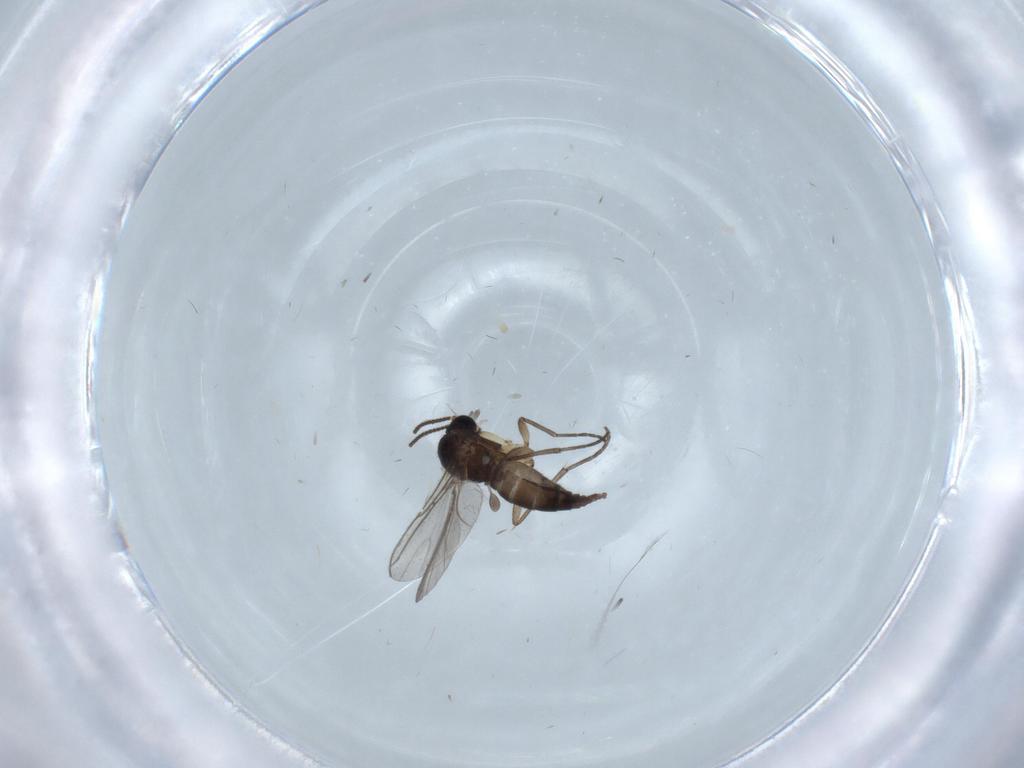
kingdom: Animalia
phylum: Arthropoda
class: Insecta
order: Diptera
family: Sciaridae
